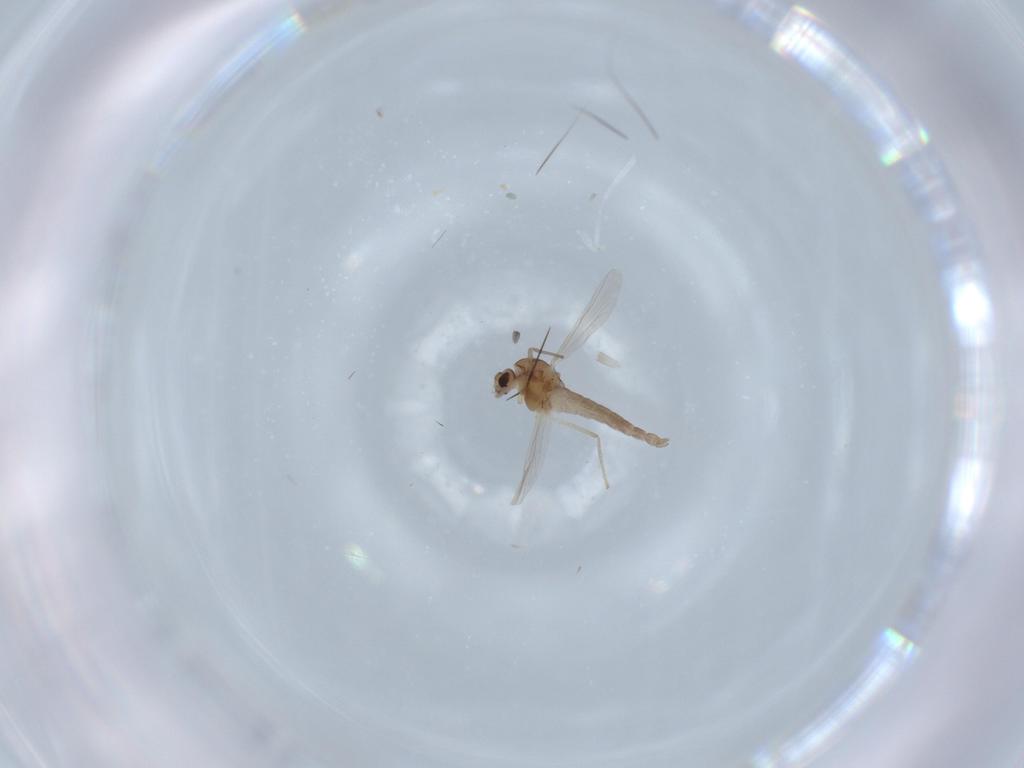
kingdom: Animalia
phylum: Arthropoda
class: Insecta
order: Diptera
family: Chironomidae
